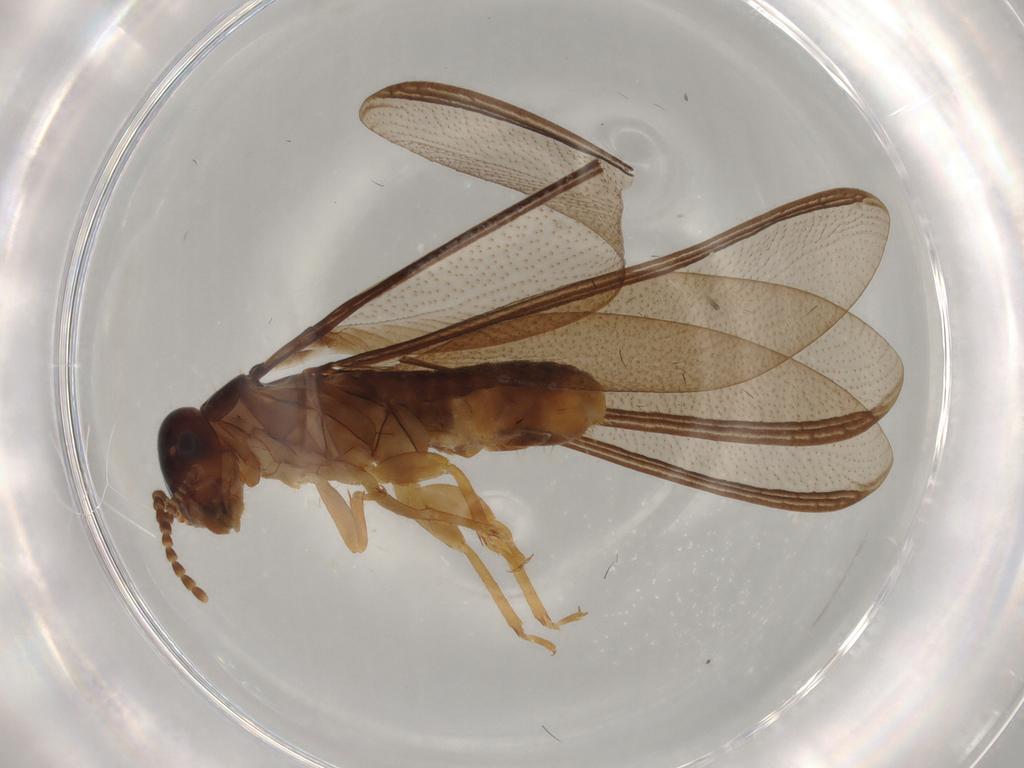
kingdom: Animalia
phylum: Arthropoda
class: Insecta
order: Blattodea
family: Kalotermitidae
